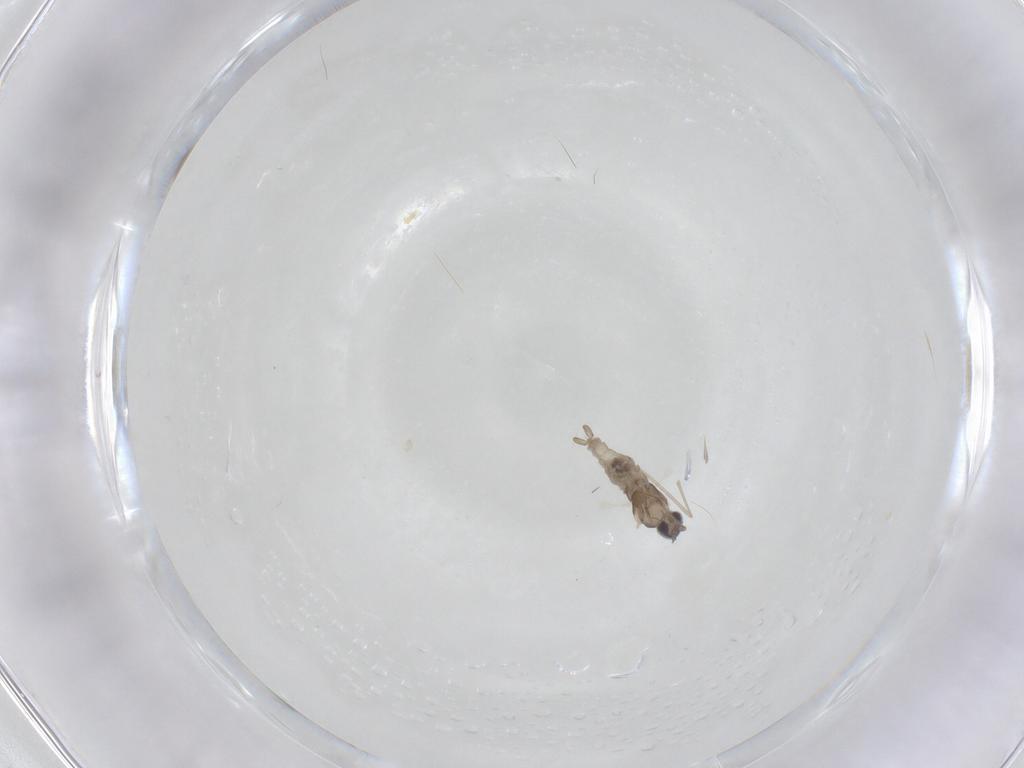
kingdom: Animalia
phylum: Arthropoda
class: Insecta
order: Diptera
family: Cecidomyiidae
